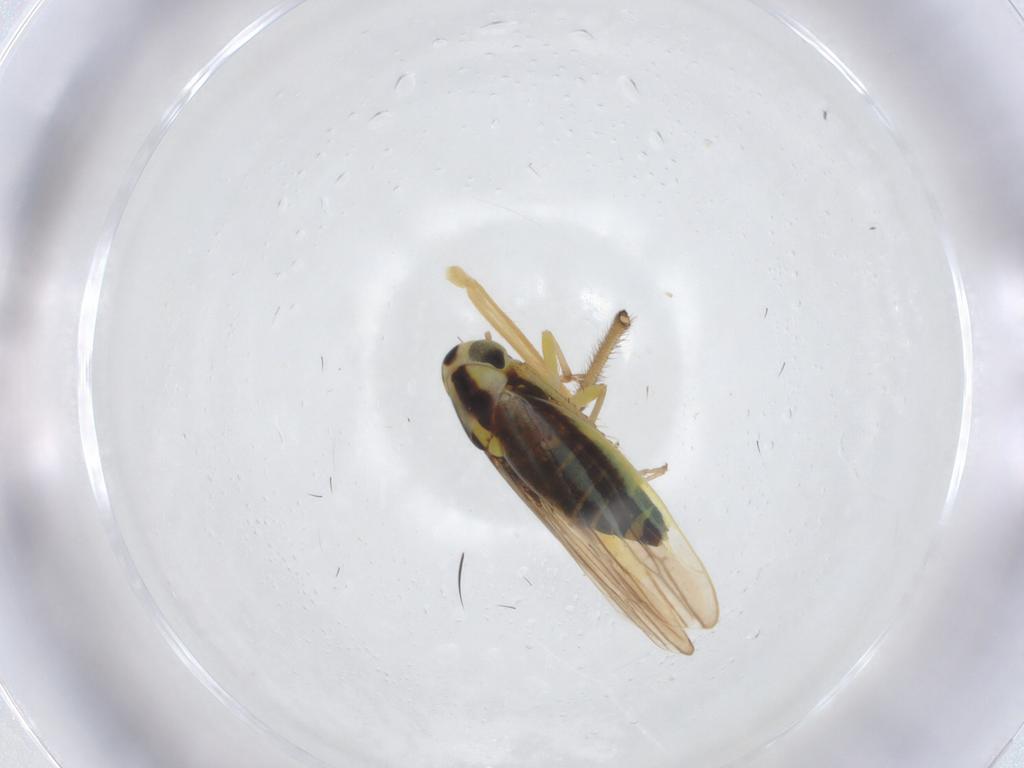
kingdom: Animalia
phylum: Arthropoda
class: Insecta
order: Hemiptera
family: Cicadellidae
